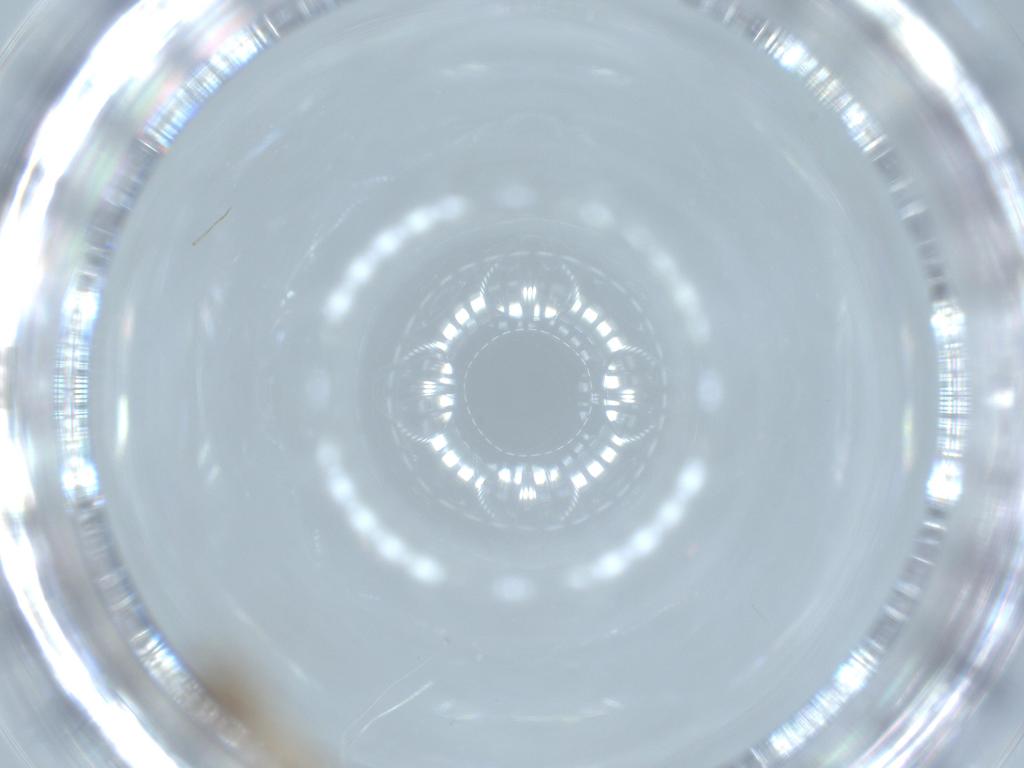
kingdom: Animalia
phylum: Arthropoda
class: Insecta
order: Diptera
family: Cecidomyiidae
